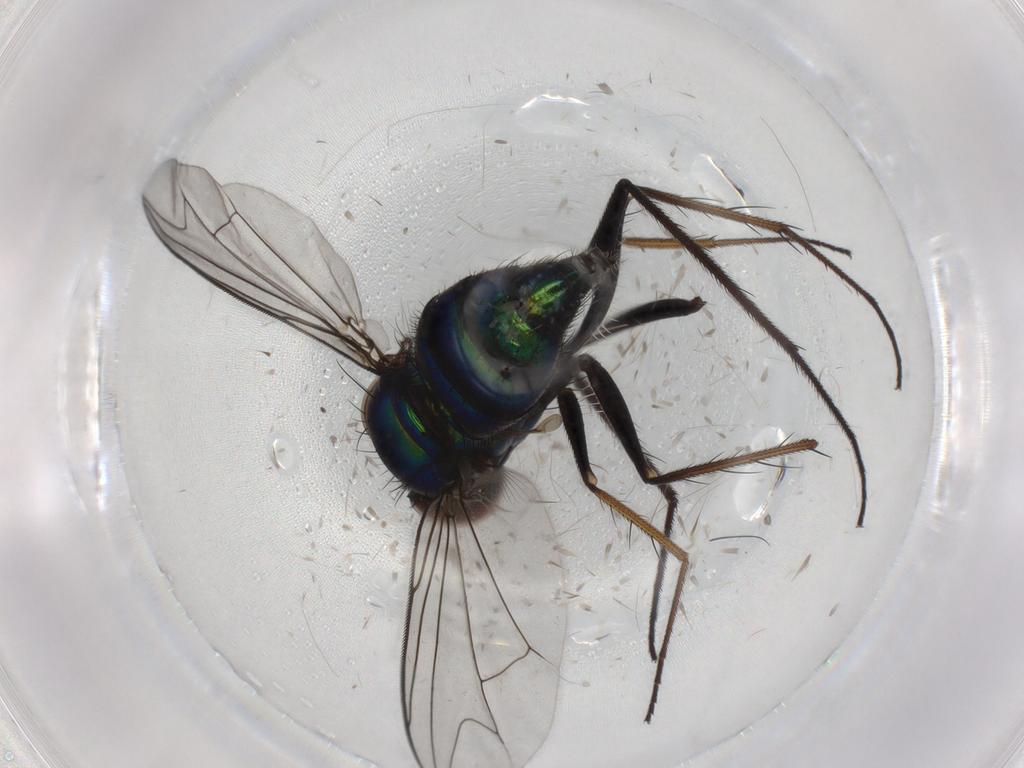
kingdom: Animalia
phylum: Arthropoda
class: Insecta
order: Diptera
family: Dolichopodidae
